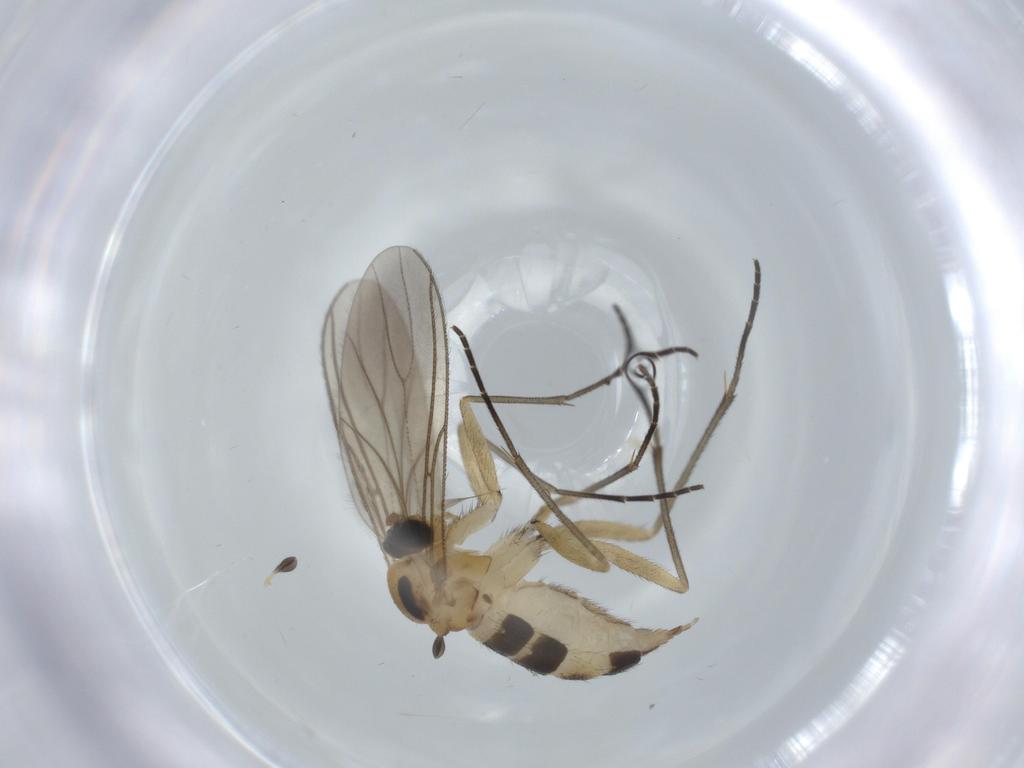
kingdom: Animalia
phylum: Arthropoda
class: Insecta
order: Diptera
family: Sciaridae
